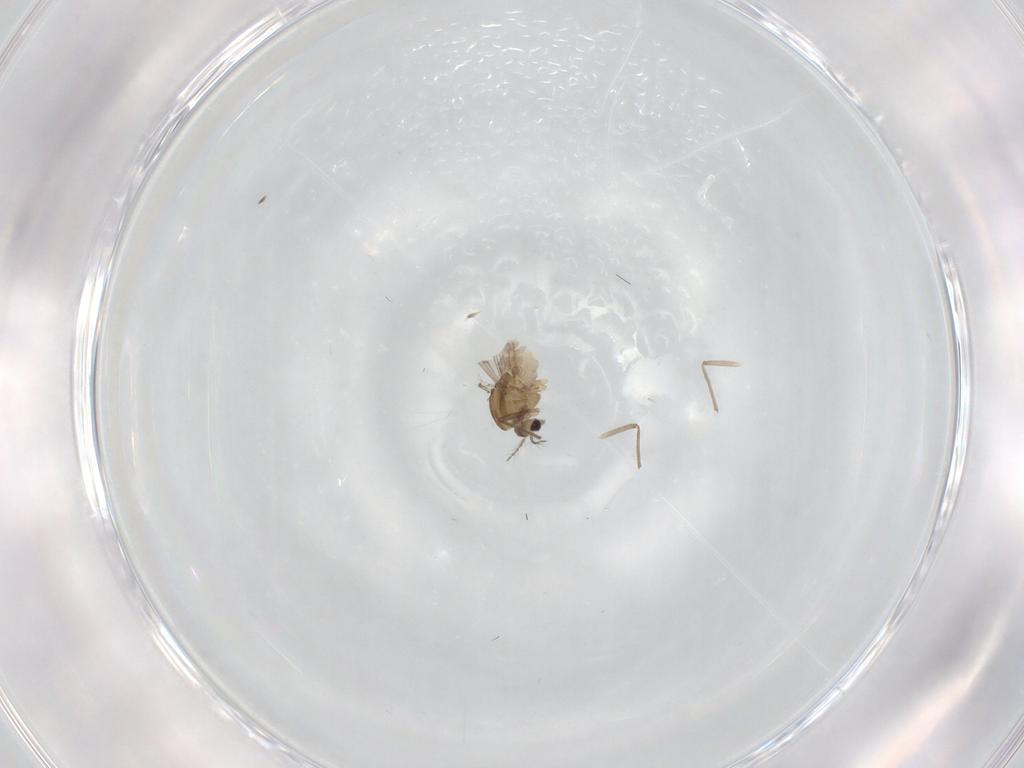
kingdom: Animalia
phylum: Arthropoda
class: Insecta
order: Diptera
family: Chironomidae
